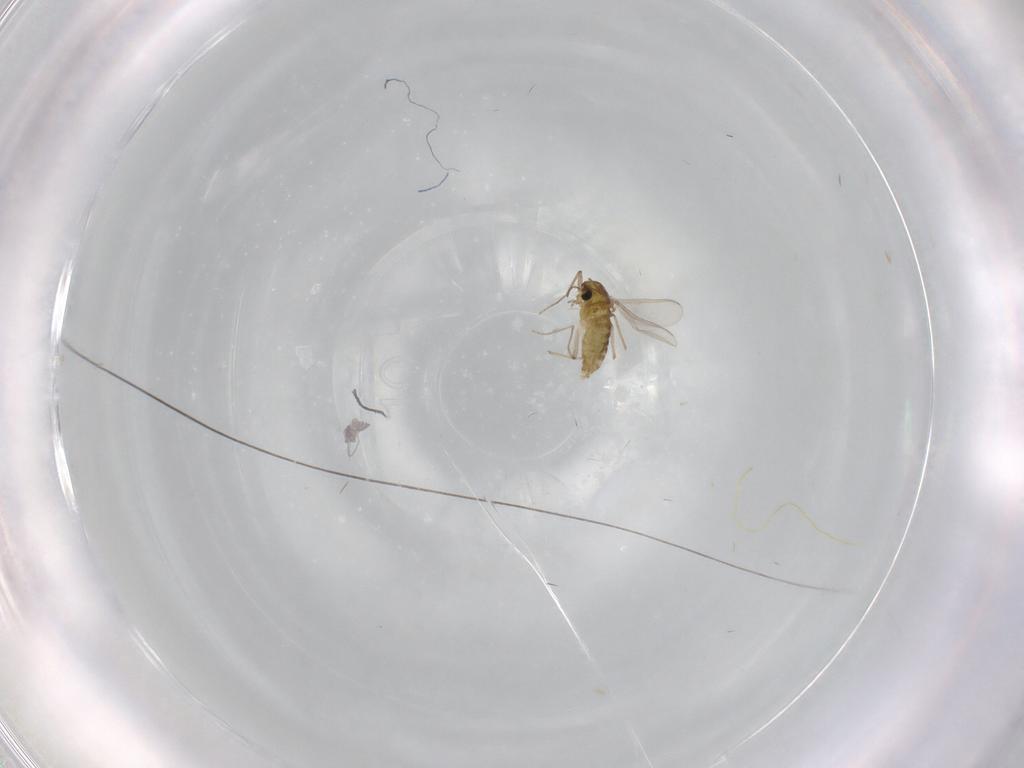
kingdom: Animalia
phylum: Arthropoda
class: Insecta
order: Diptera
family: Chironomidae
